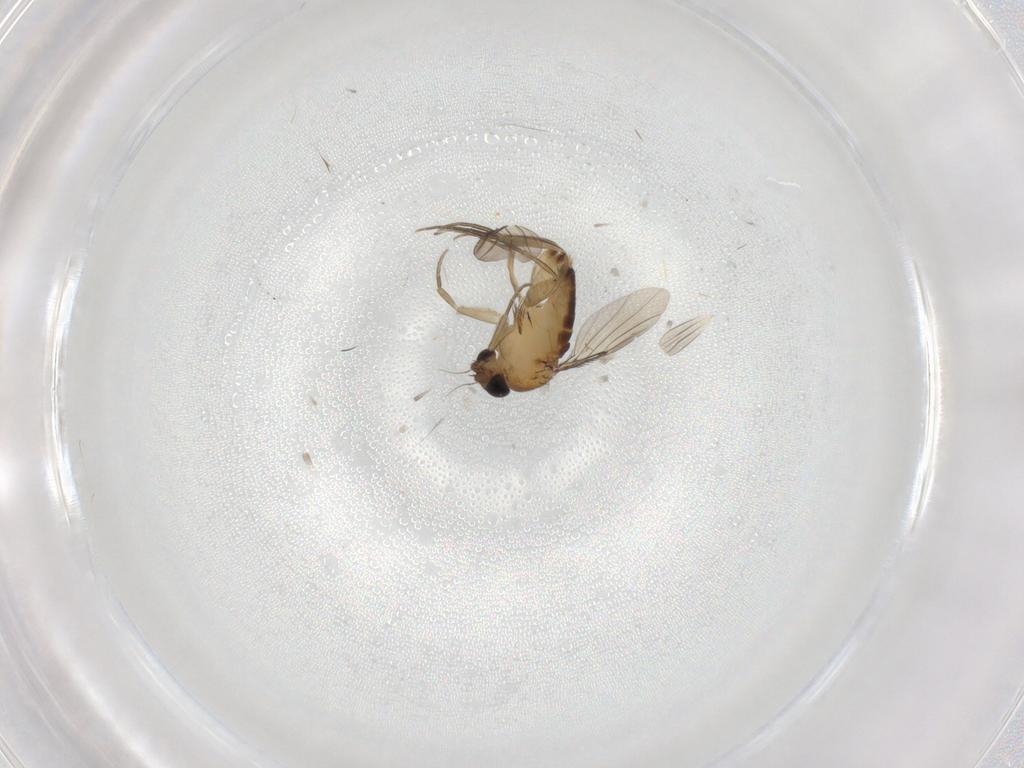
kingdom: Animalia
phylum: Arthropoda
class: Insecta
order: Diptera
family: Phoridae
